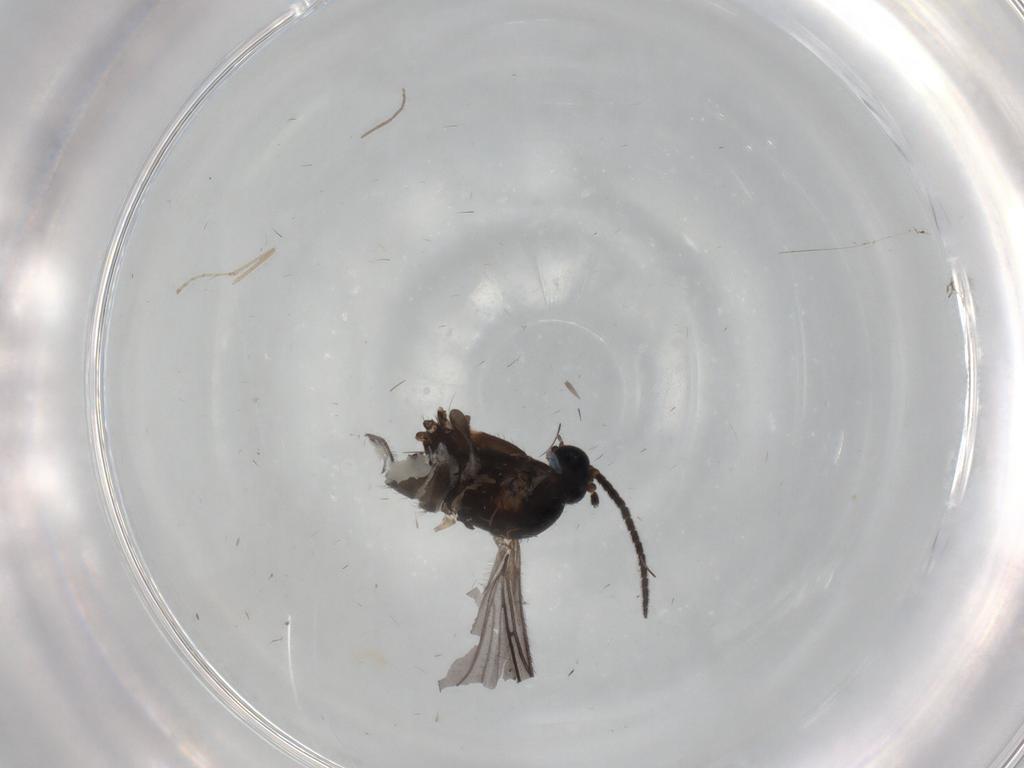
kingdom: Animalia
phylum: Arthropoda
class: Insecta
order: Diptera
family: Sciaridae
